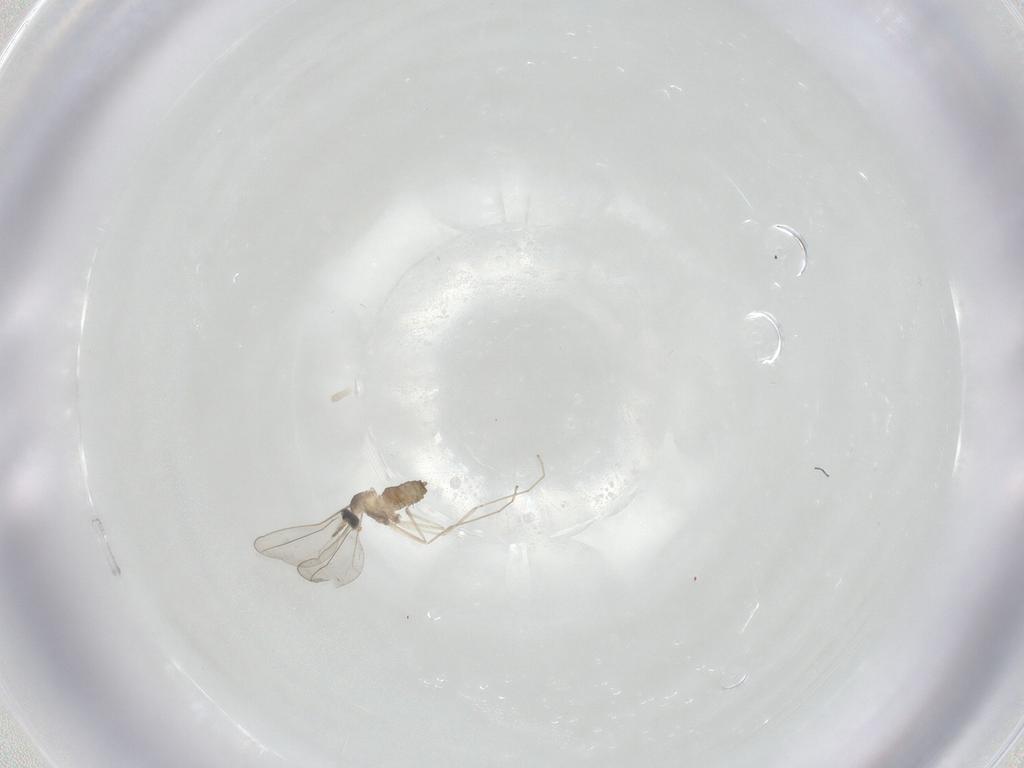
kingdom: Animalia
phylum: Arthropoda
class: Insecta
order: Diptera
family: Cecidomyiidae
